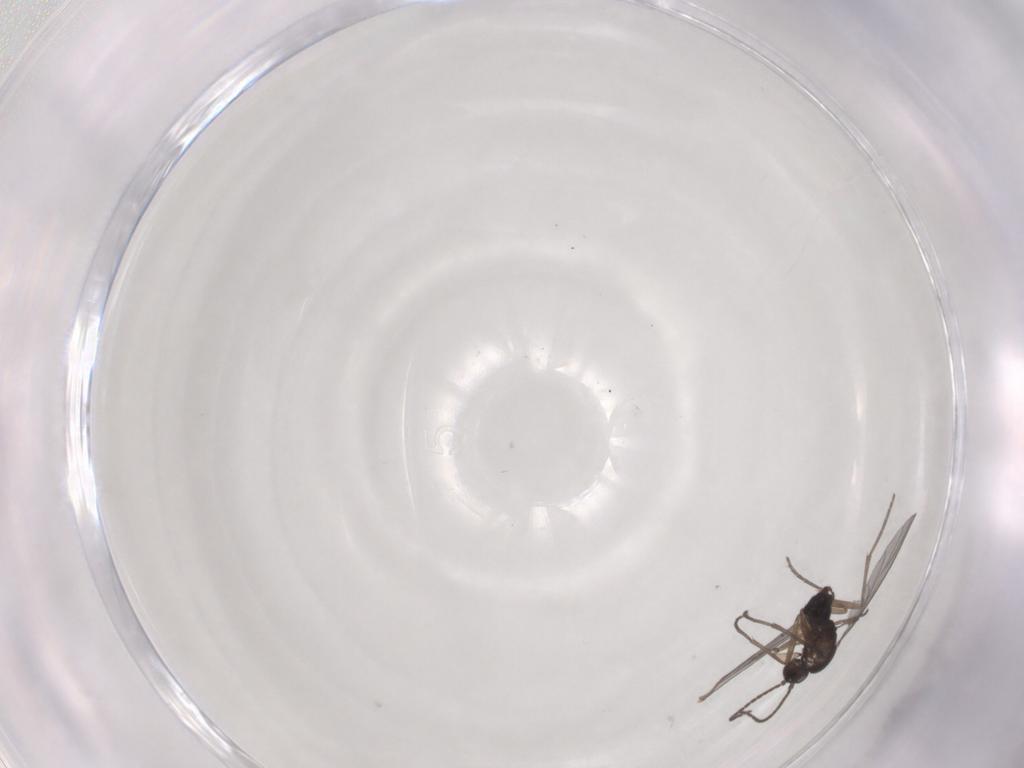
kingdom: Animalia
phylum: Arthropoda
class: Insecta
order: Diptera
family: Sciaridae
